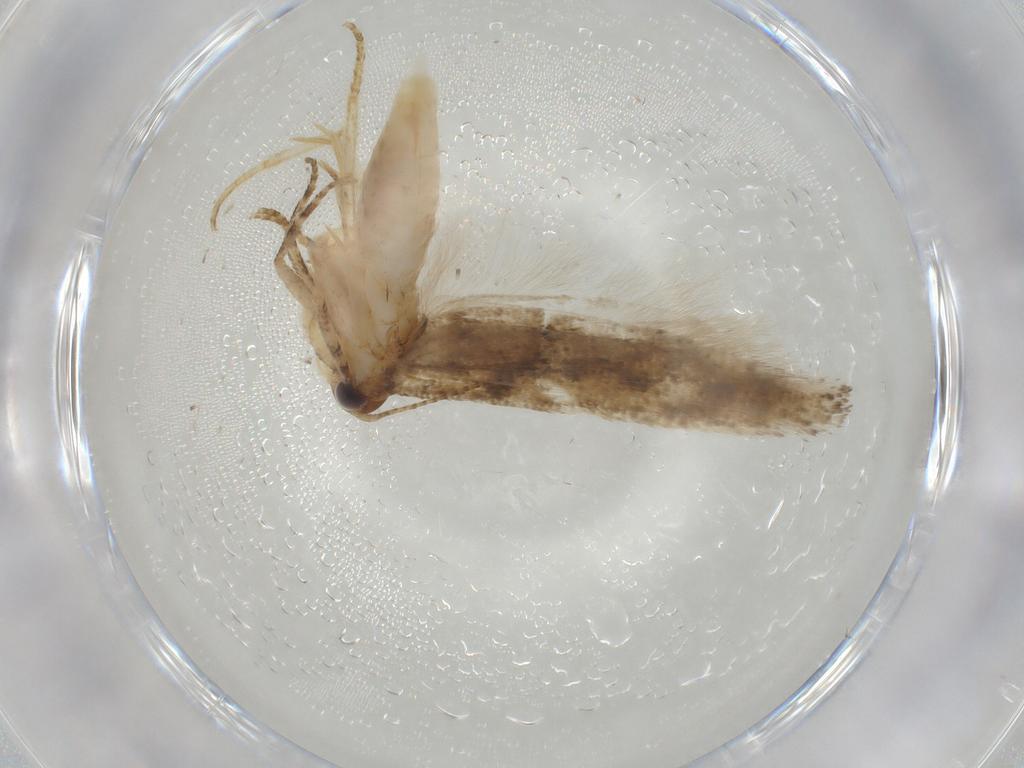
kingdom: Animalia
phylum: Arthropoda
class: Insecta
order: Lepidoptera
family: Gelechiidae
